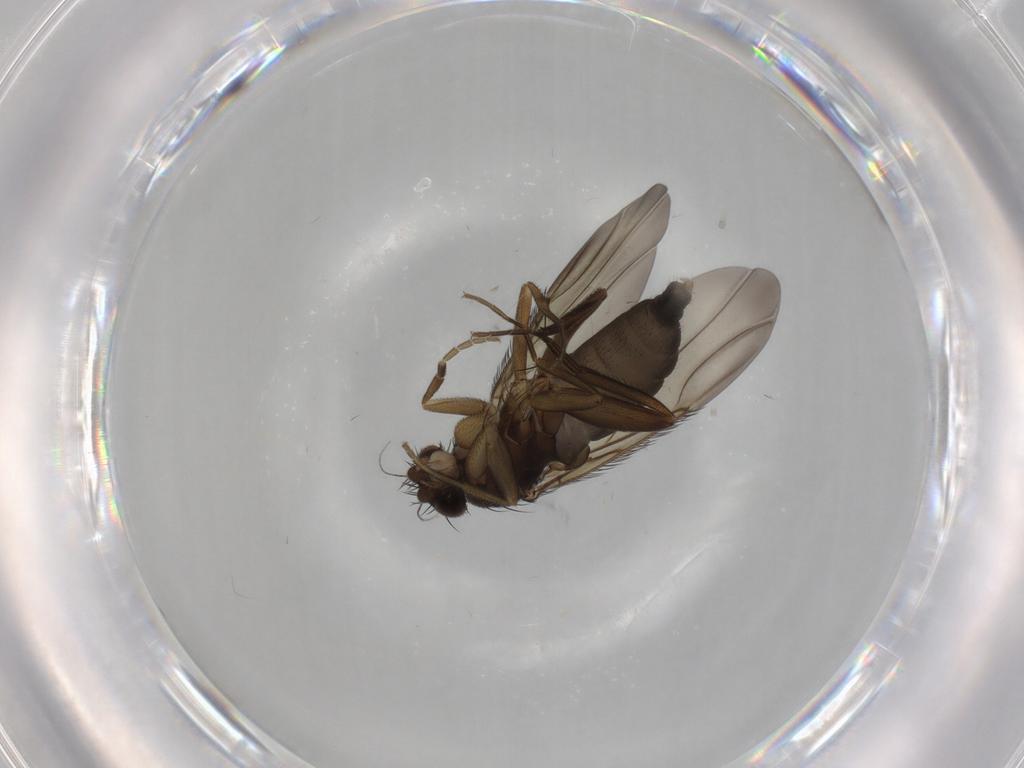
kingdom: Animalia
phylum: Arthropoda
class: Insecta
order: Diptera
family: Phoridae
